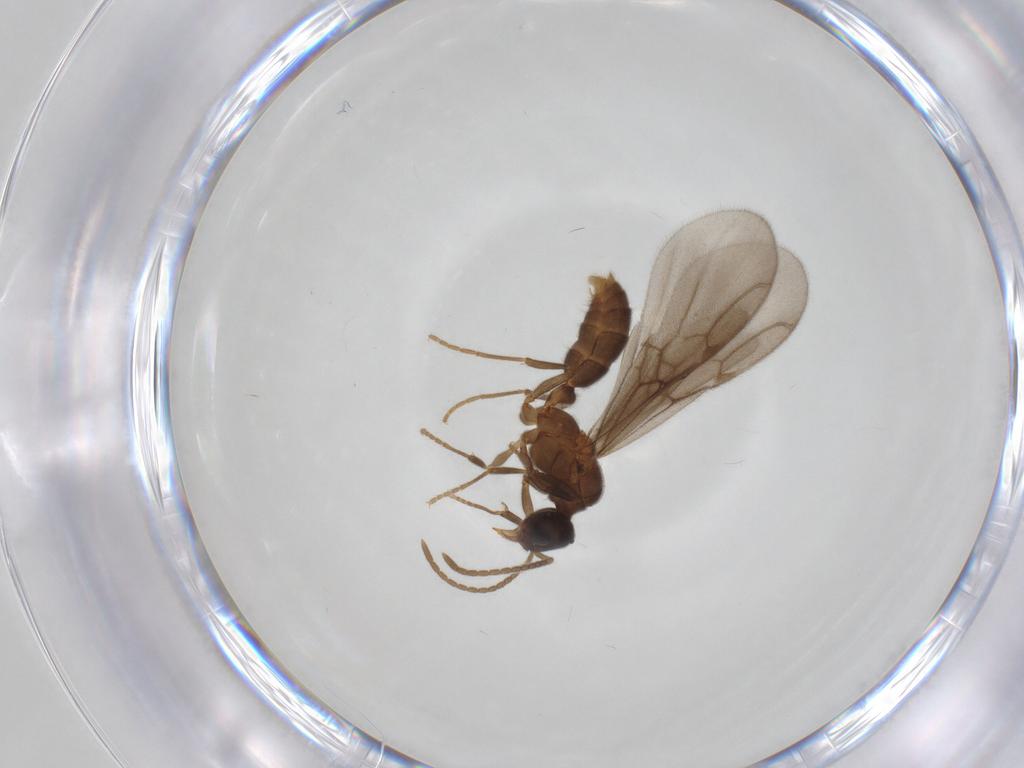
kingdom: Animalia
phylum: Arthropoda
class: Insecta
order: Hymenoptera
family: Formicidae
